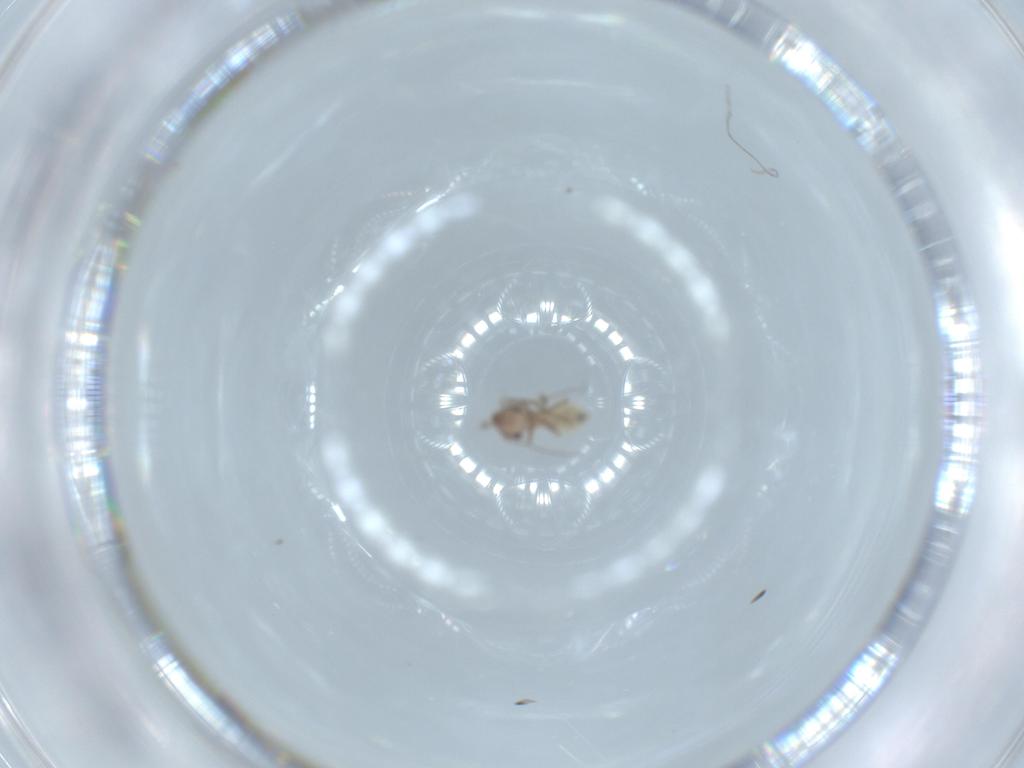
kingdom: Animalia
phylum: Arthropoda
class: Insecta
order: Psocodea
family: Lepidopsocidae
